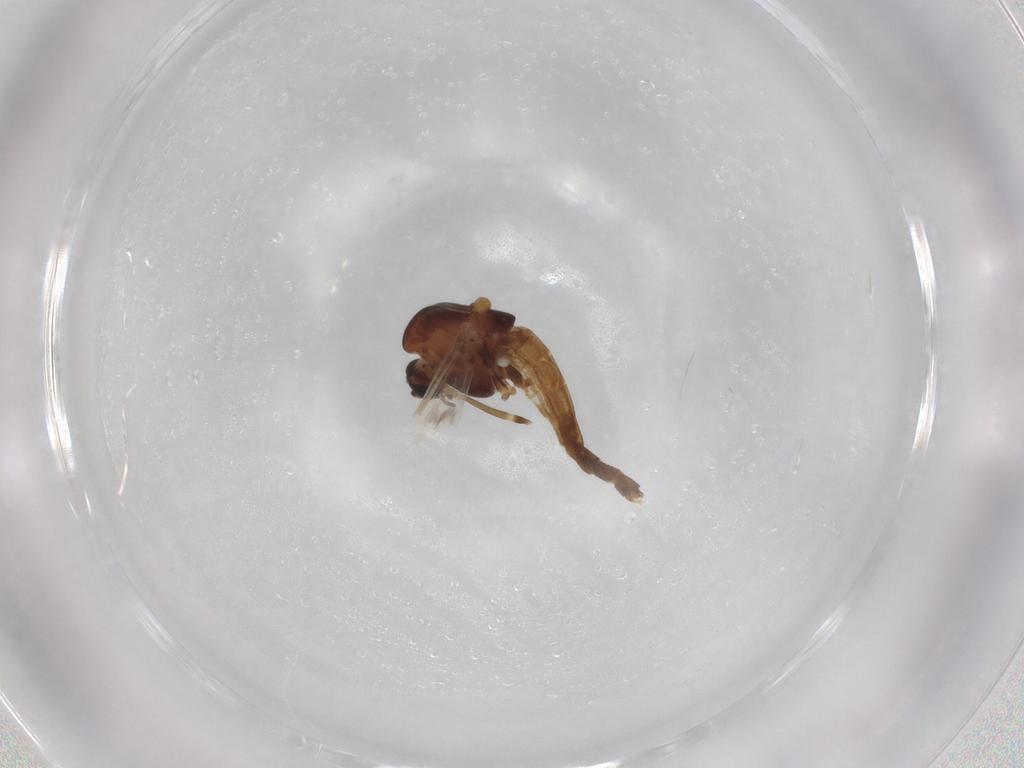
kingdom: Animalia
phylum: Arthropoda
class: Insecta
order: Diptera
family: Chironomidae
